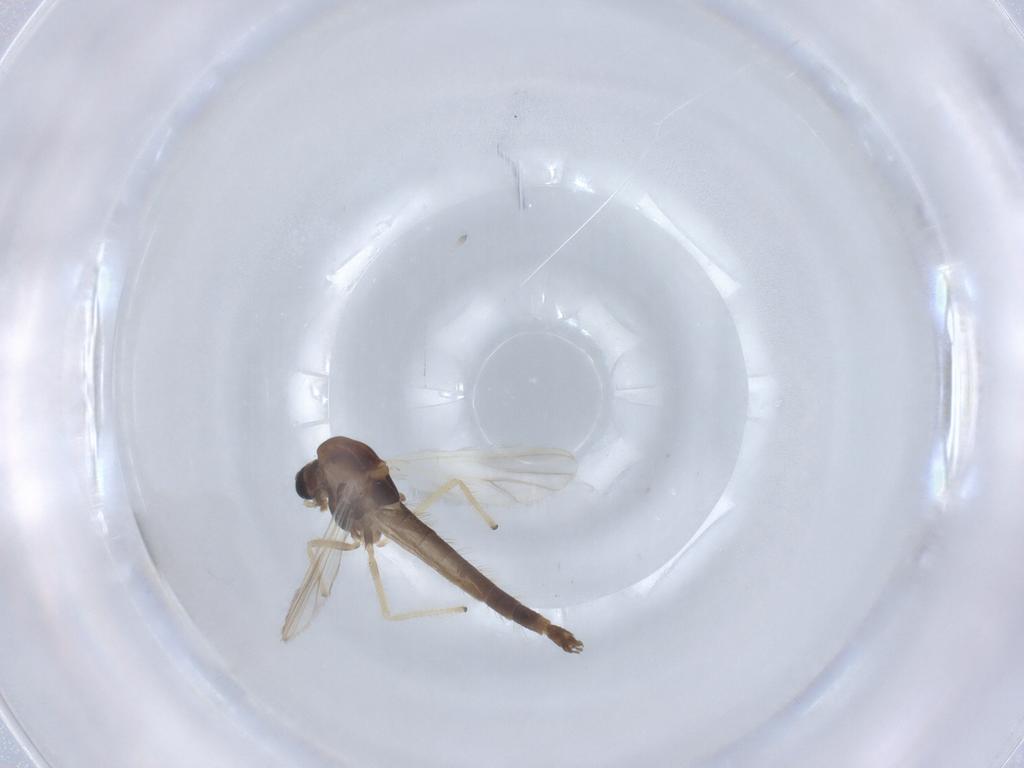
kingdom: Animalia
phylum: Arthropoda
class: Insecta
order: Diptera
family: Chironomidae
